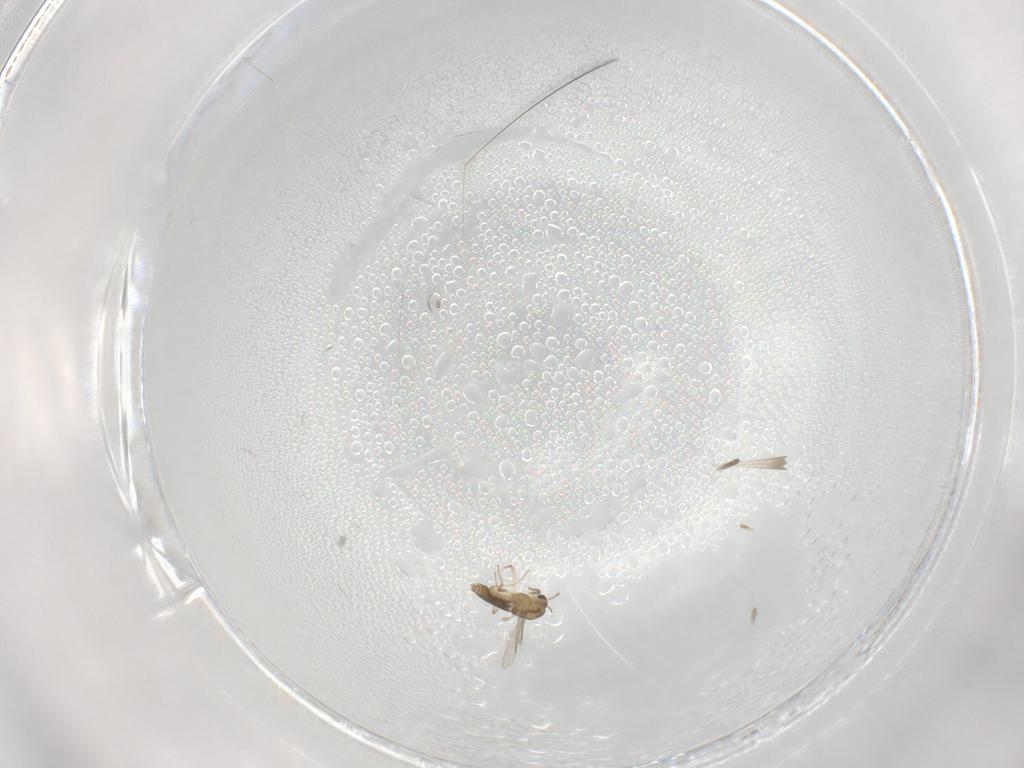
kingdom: Animalia
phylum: Arthropoda
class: Insecta
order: Diptera
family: Chironomidae
